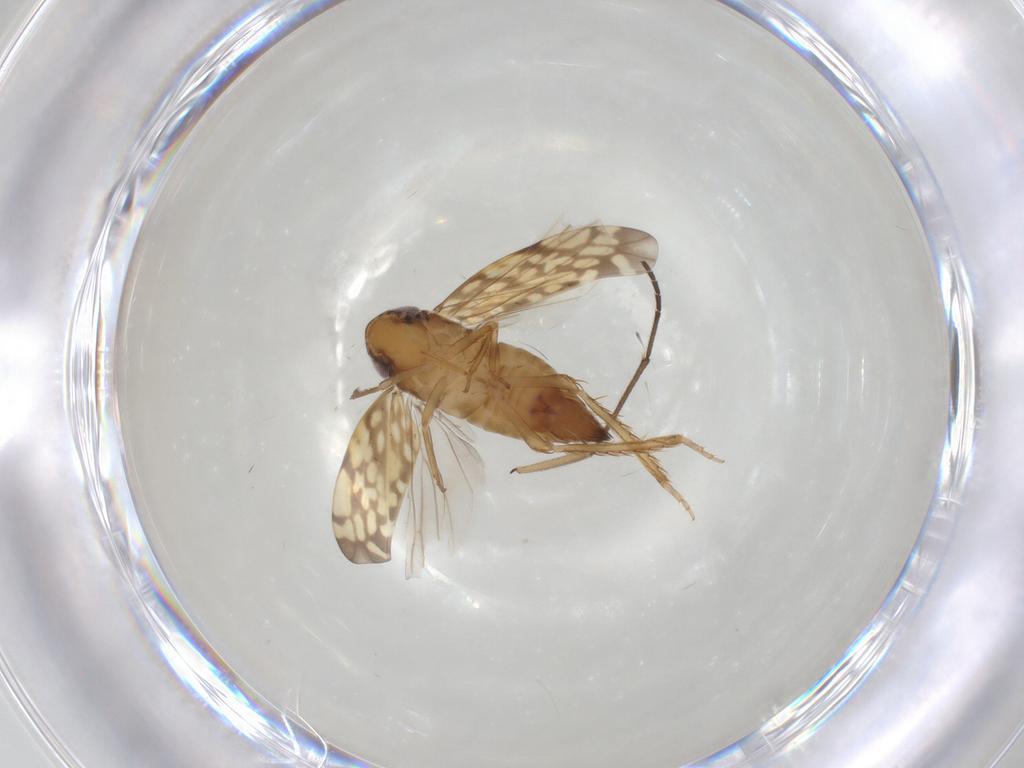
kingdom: Animalia
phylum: Arthropoda
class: Insecta
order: Hemiptera
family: Cicadellidae
